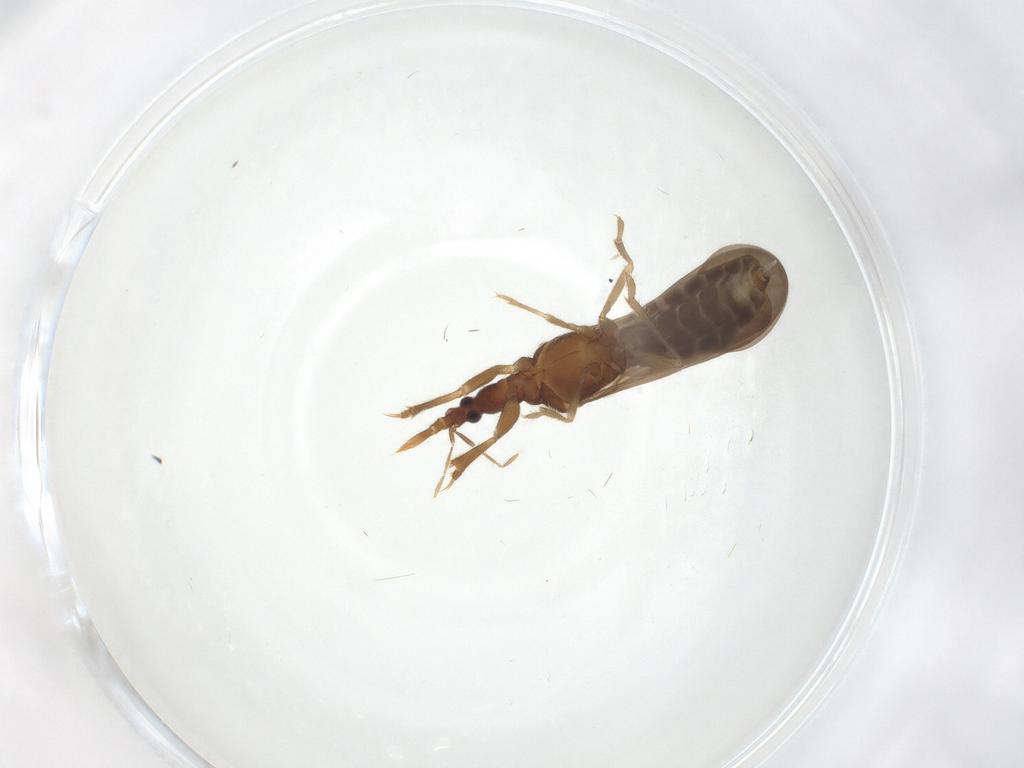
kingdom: Animalia
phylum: Arthropoda
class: Insecta
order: Hemiptera
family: Enicocephalidae
